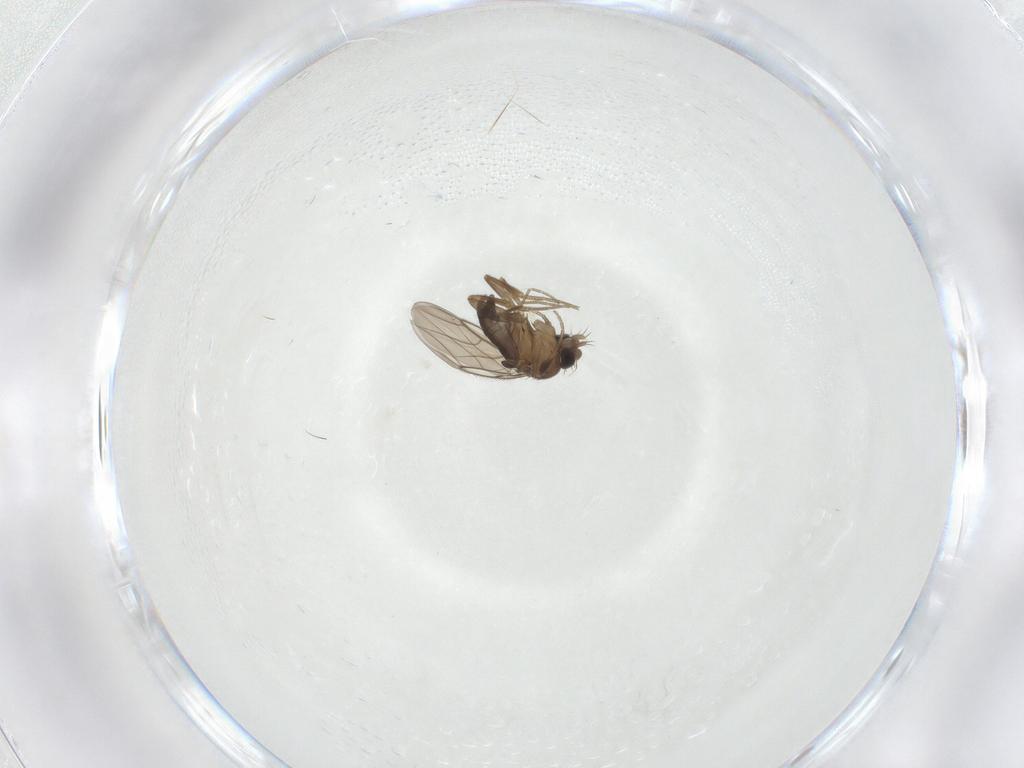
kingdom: Animalia
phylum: Arthropoda
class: Insecta
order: Diptera
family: Phoridae
